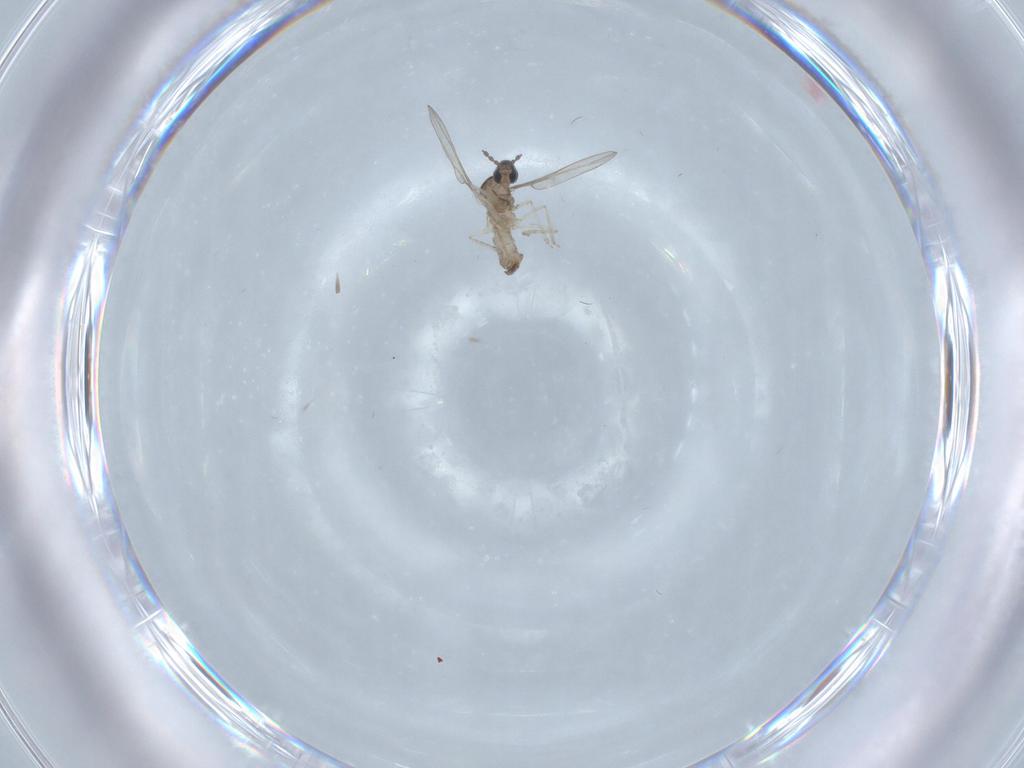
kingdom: Animalia
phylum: Arthropoda
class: Insecta
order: Diptera
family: Cecidomyiidae
